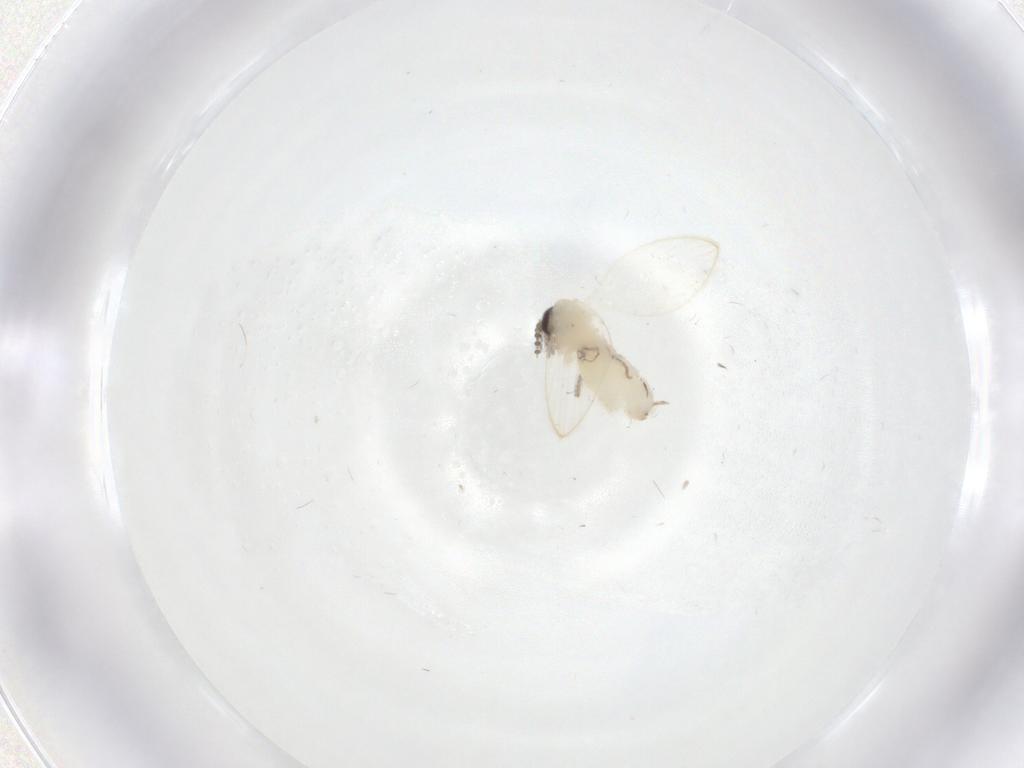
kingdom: Animalia
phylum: Arthropoda
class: Insecta
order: Diptera
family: Psychodidae
